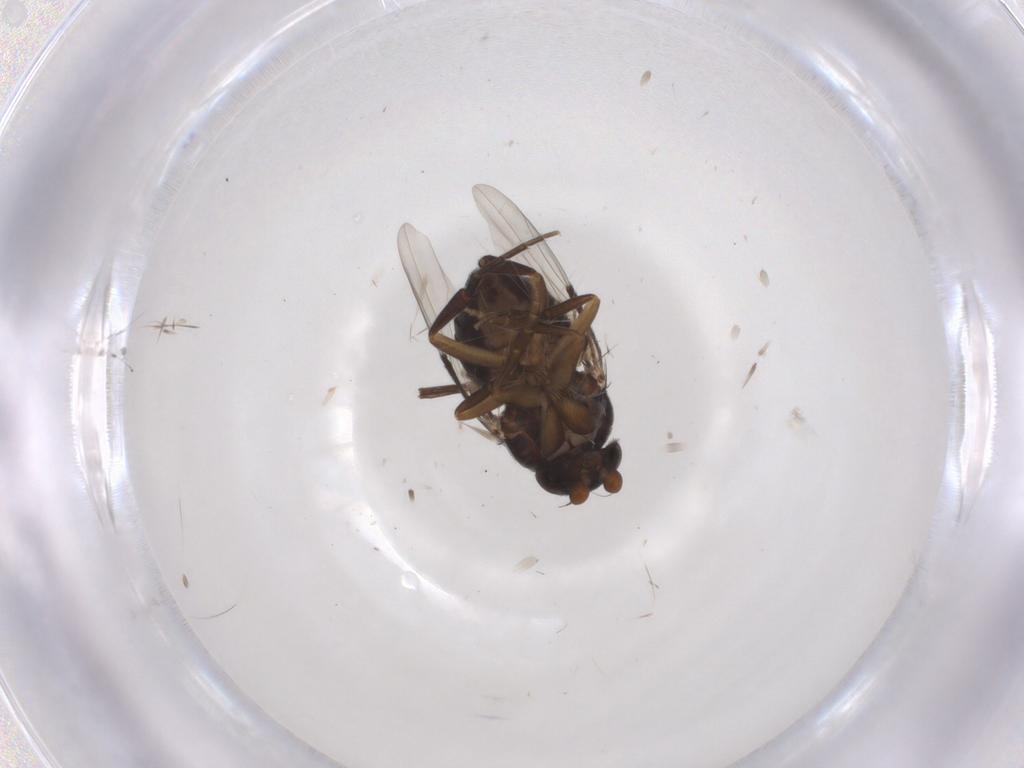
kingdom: Animalia
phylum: Arthropoda
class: Insecta
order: Diptera
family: Phoridae
